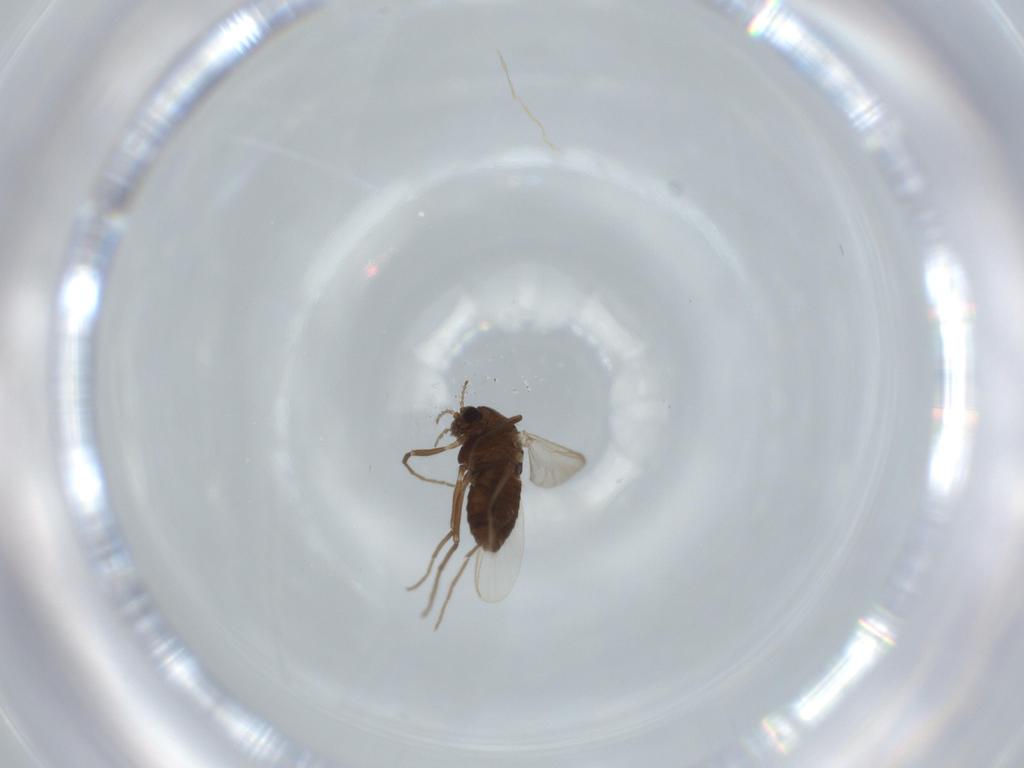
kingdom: Animalia
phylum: Arthropoda
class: Insecta
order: Diptera
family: Chironomidae
